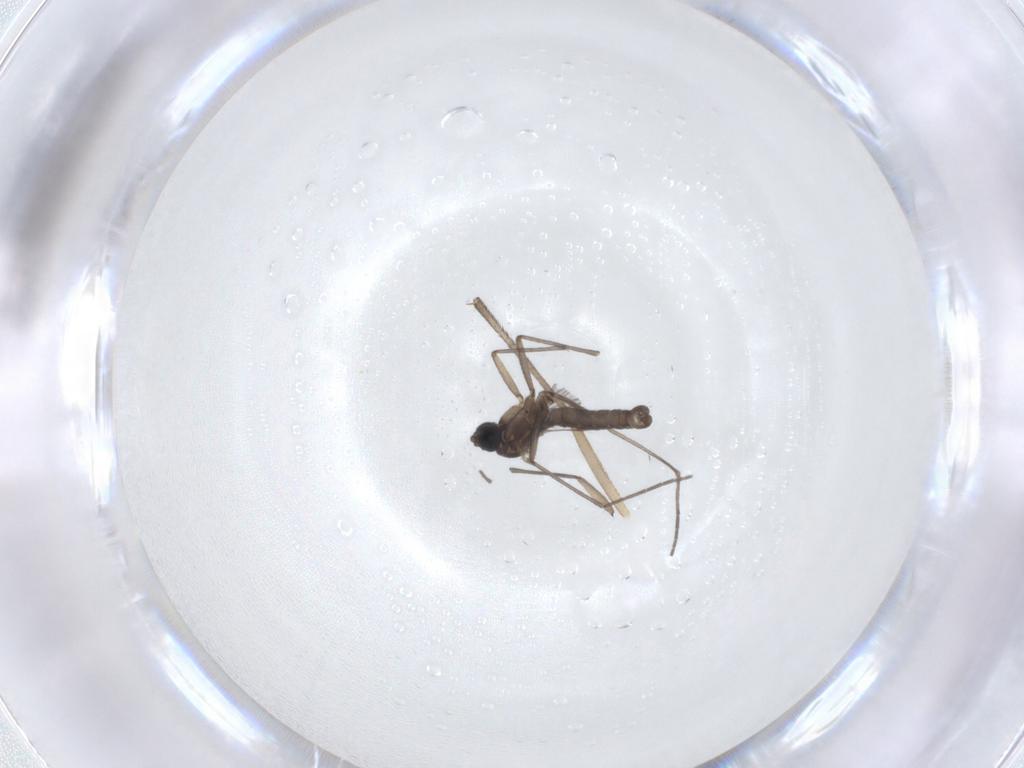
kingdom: Animalia
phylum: Arthropoda
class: Insecta
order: Diptera
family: Sciaridae
